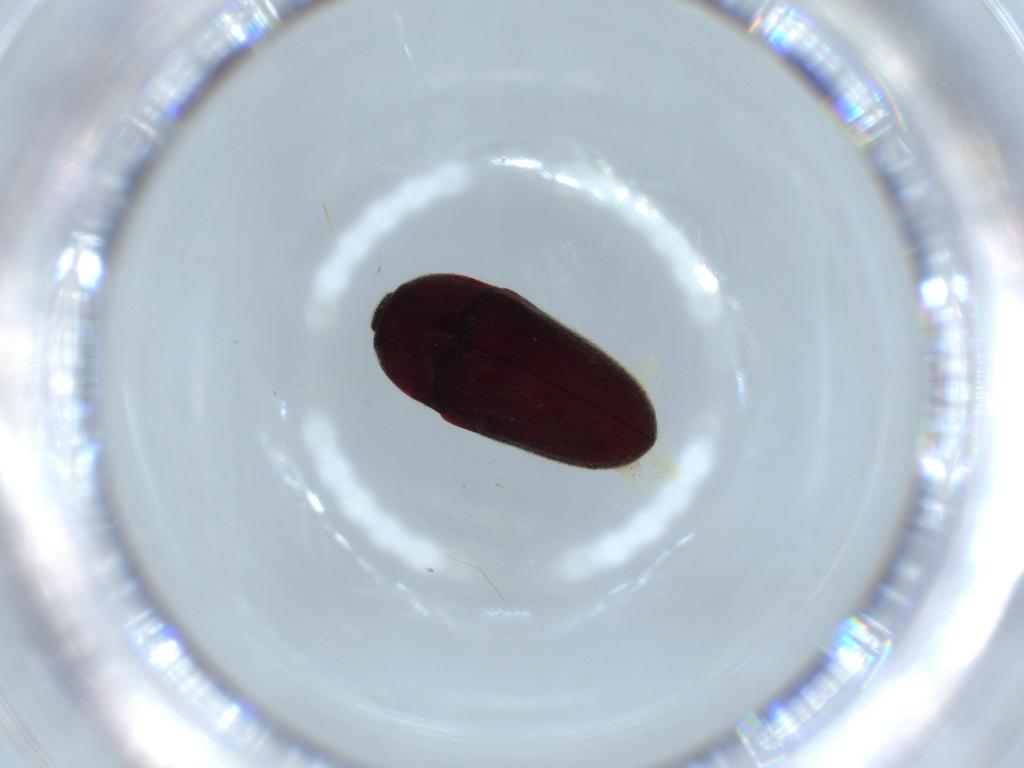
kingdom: Animalia
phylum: Arthropoda
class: Insecta
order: Coleoptera
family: Throscidae
